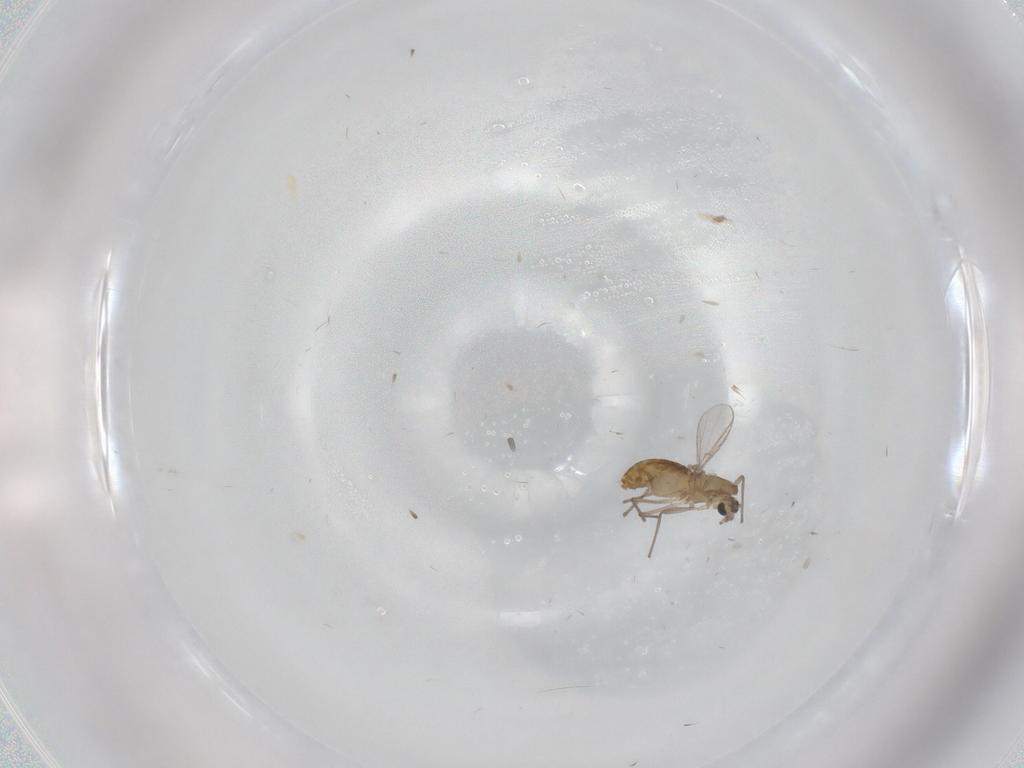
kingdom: Animalia
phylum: Arthropoda
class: Insecta
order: Diptera
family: Chironomidae
